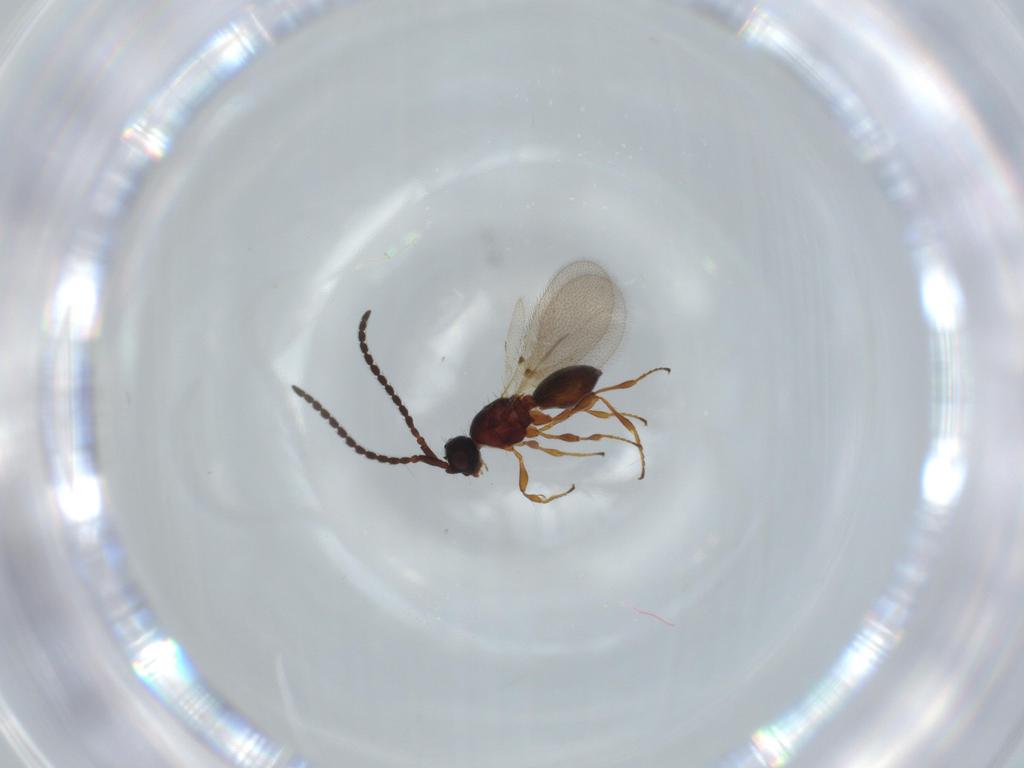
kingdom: Animalia
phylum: Arthropoda
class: Insecta
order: Hymenoptera
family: Diapriidae
